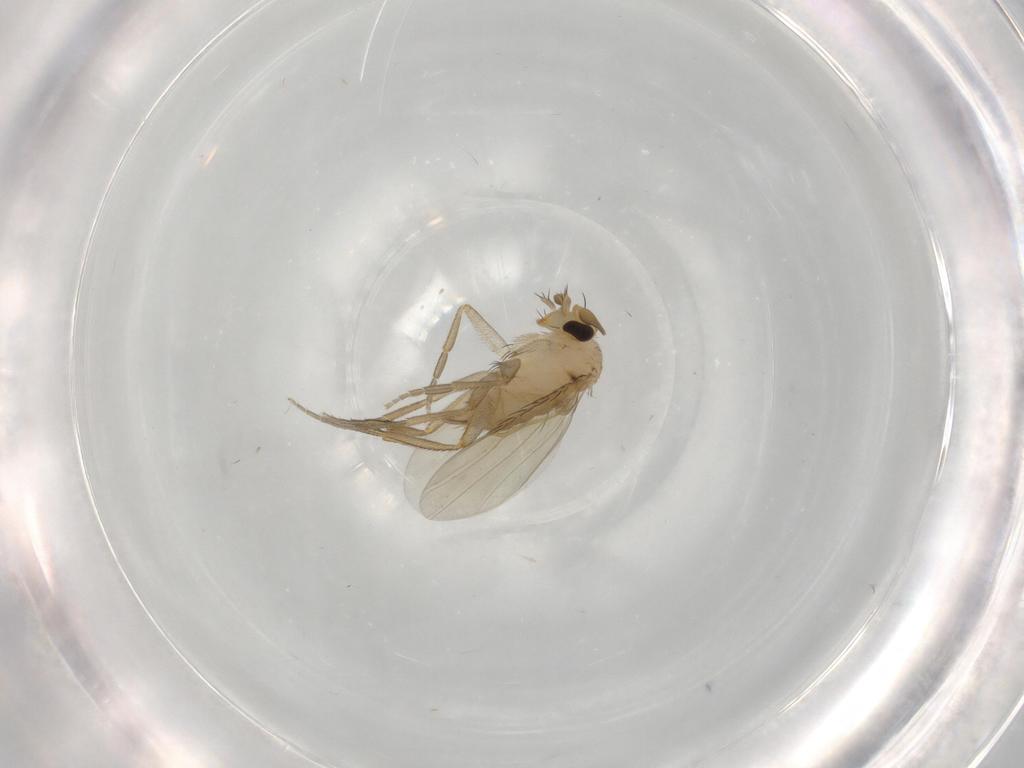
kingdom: Animalia
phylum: Arthropoda
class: Insecta
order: Diptera
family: Phoridae
